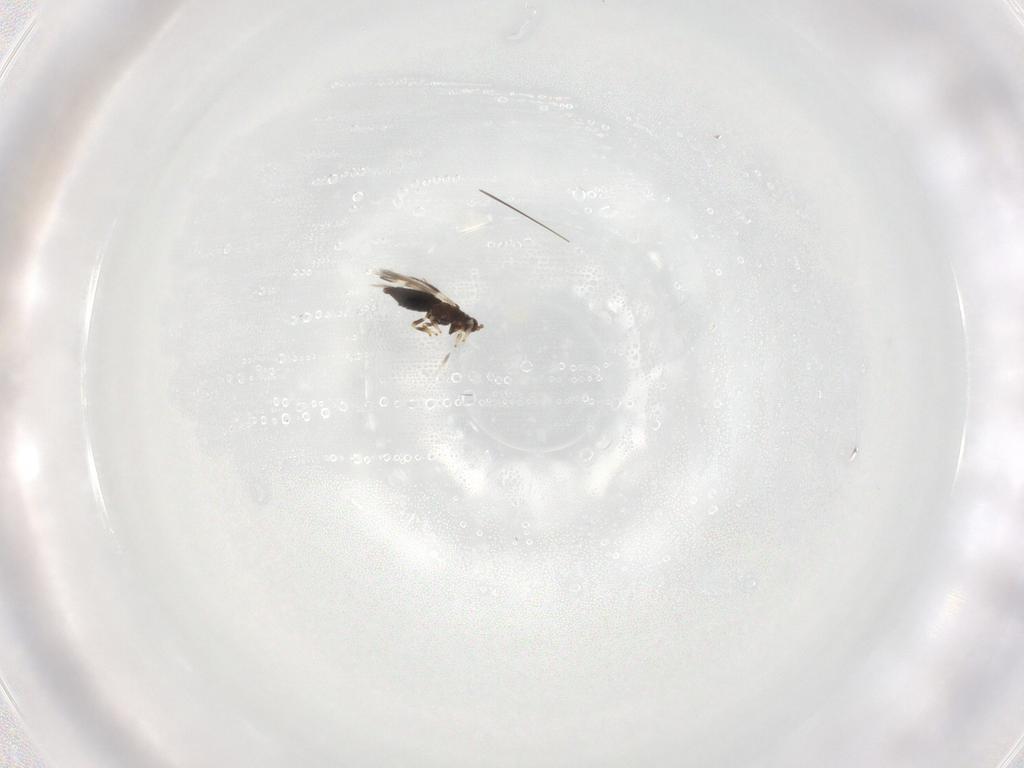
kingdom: Animalia
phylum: Arthropoda
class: Insecta
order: Thysanoptera
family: Thripidae
